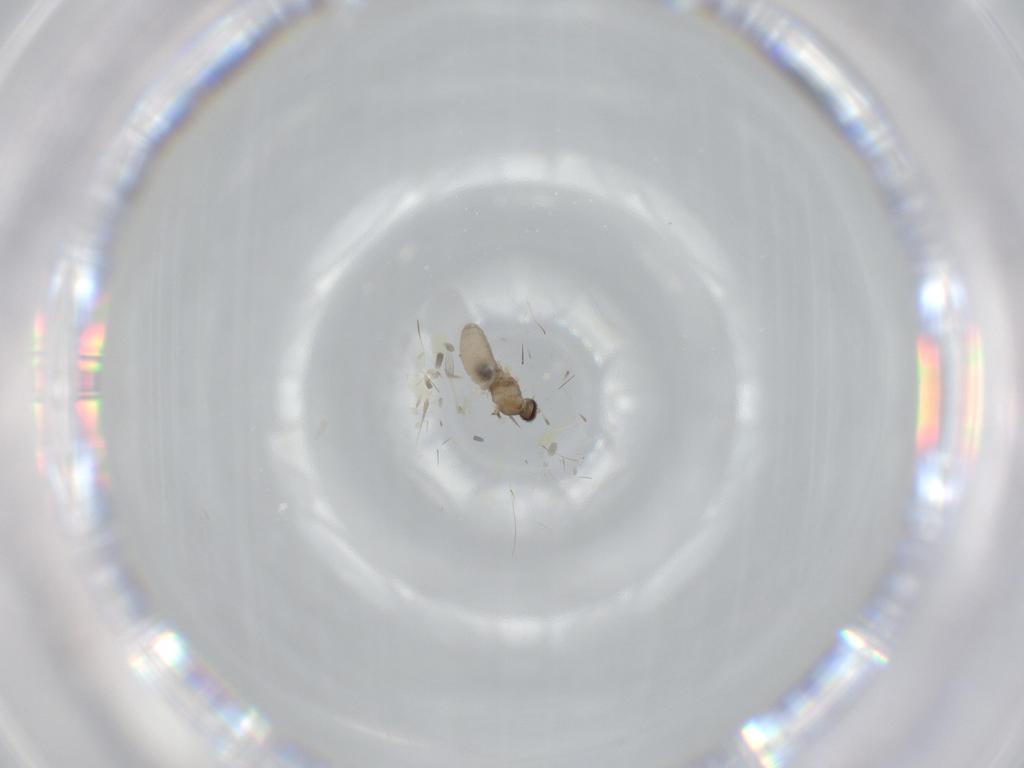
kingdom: Animalia
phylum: Arthropoda
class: Insecta
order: Diptera
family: Cecidomyiidae
